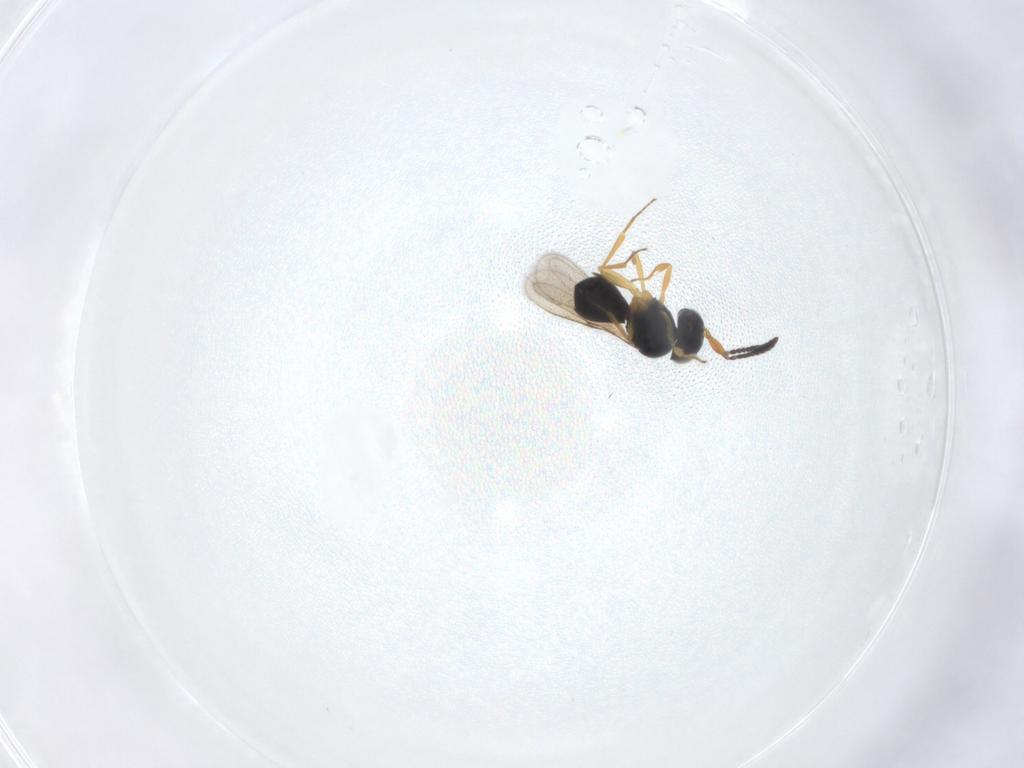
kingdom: Animalia
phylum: Arthropoda
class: Insecta
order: Hymenoptera
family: Scelionidae
